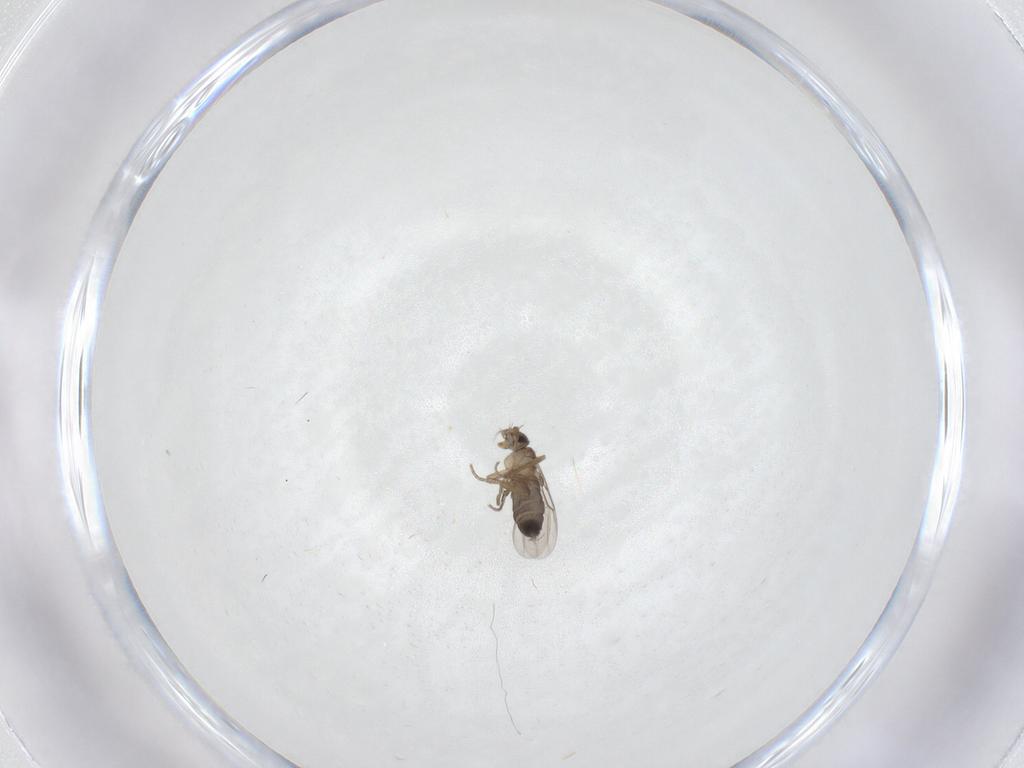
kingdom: Animalia
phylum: Arthropoda
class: Insecta
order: Diptera
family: Phoridae
